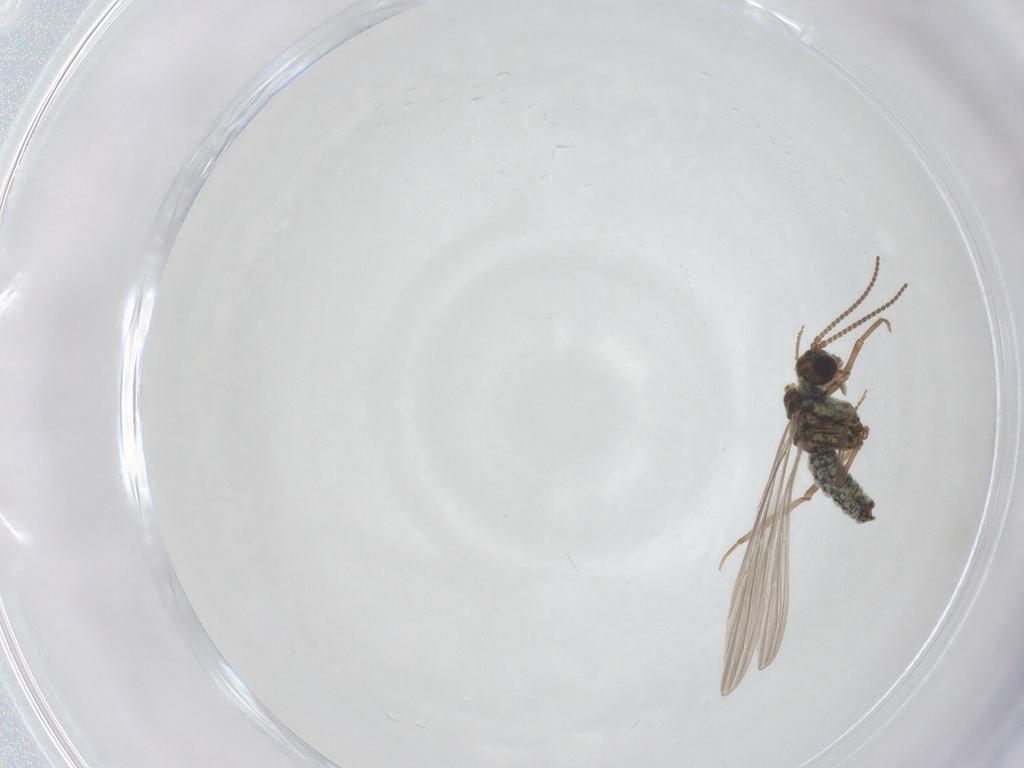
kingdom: Animalia
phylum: Arthropoda
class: Insecta
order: Neuroptera
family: Coniopterygidae
